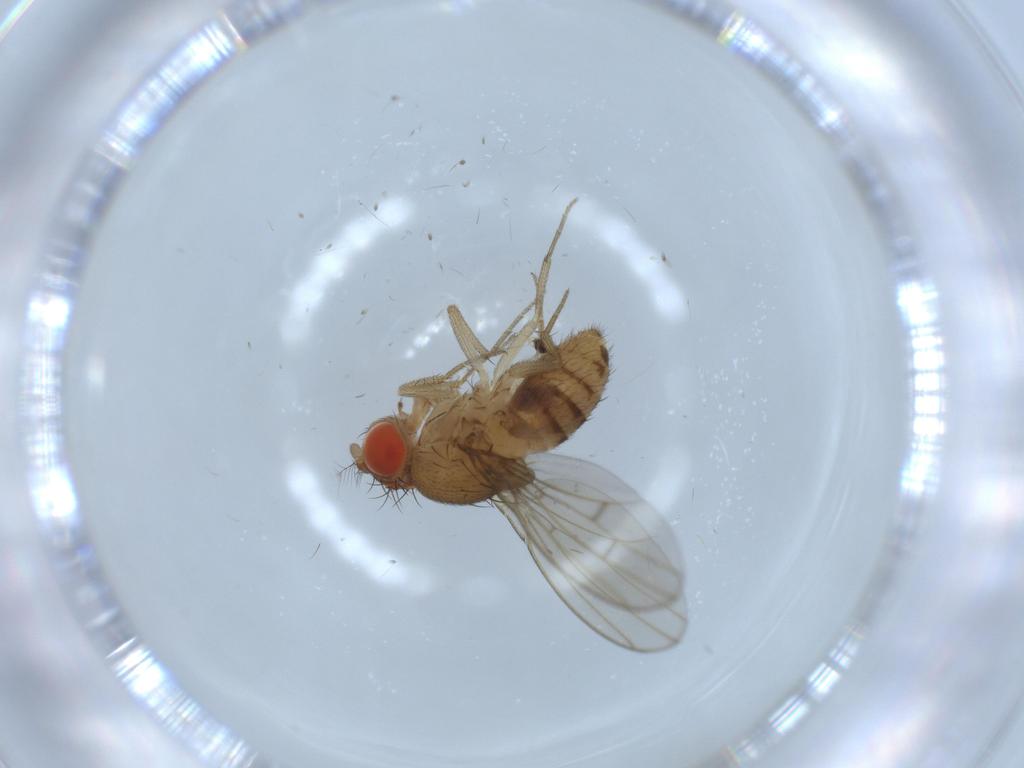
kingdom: Animalia
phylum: Arthropoda
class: Insecta
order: Diptera
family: Drosophilidae
